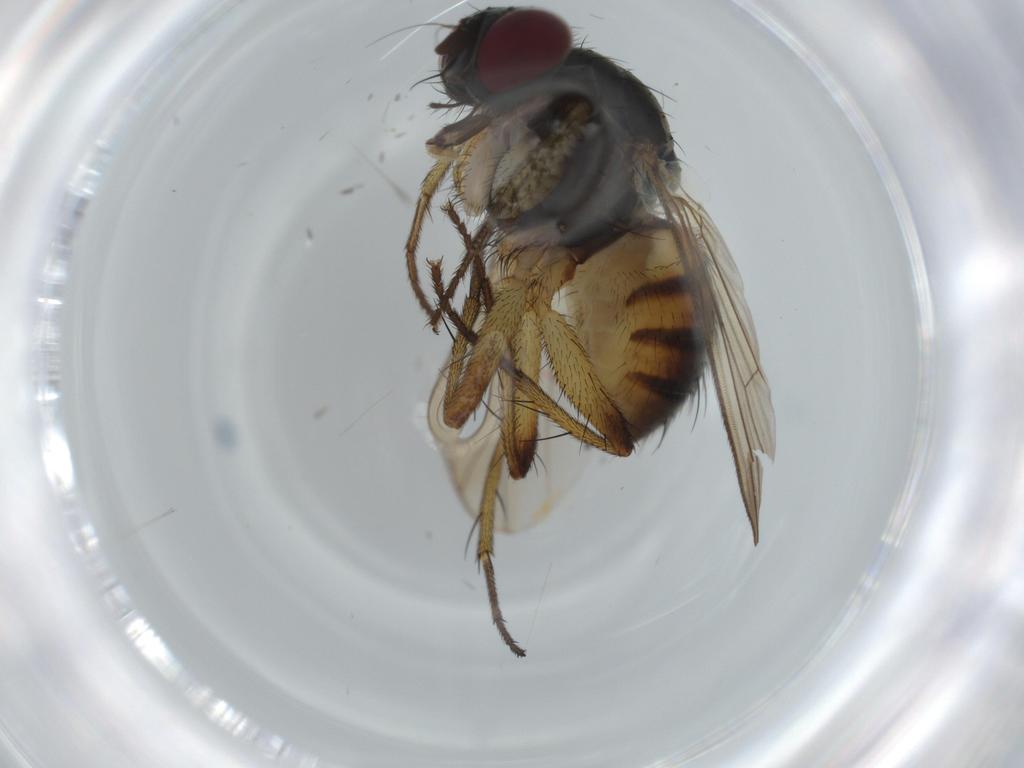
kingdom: Animalia
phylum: Arthropoda
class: Insecta
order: Diptera
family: Muscidae
